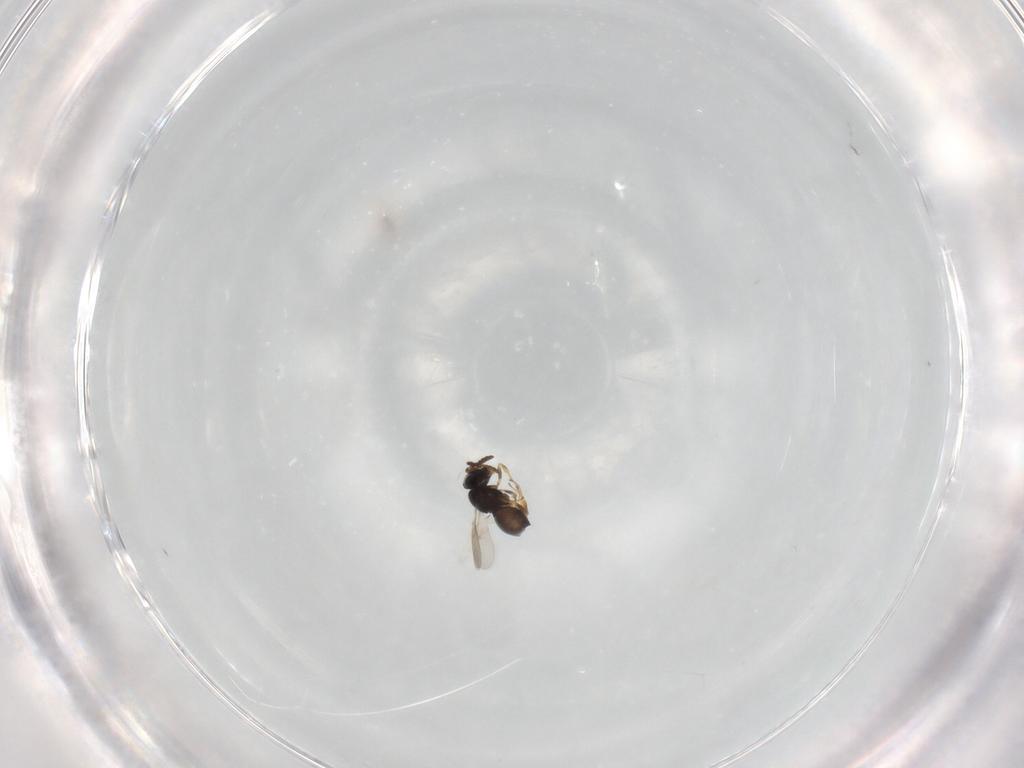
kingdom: Animalia
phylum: Arthropoda
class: Insecta
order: Hymenoptera
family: Scelionidae
